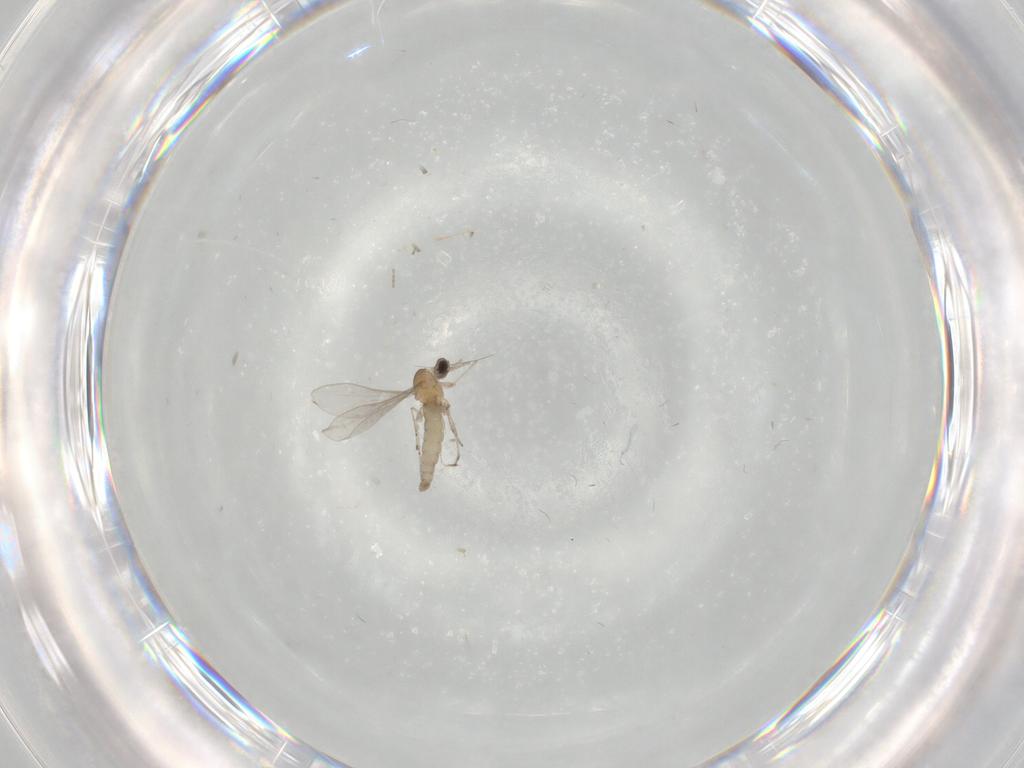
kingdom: Animalia
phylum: Arthropoda
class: Insecta
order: Diptera
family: Cecidomyiidae
